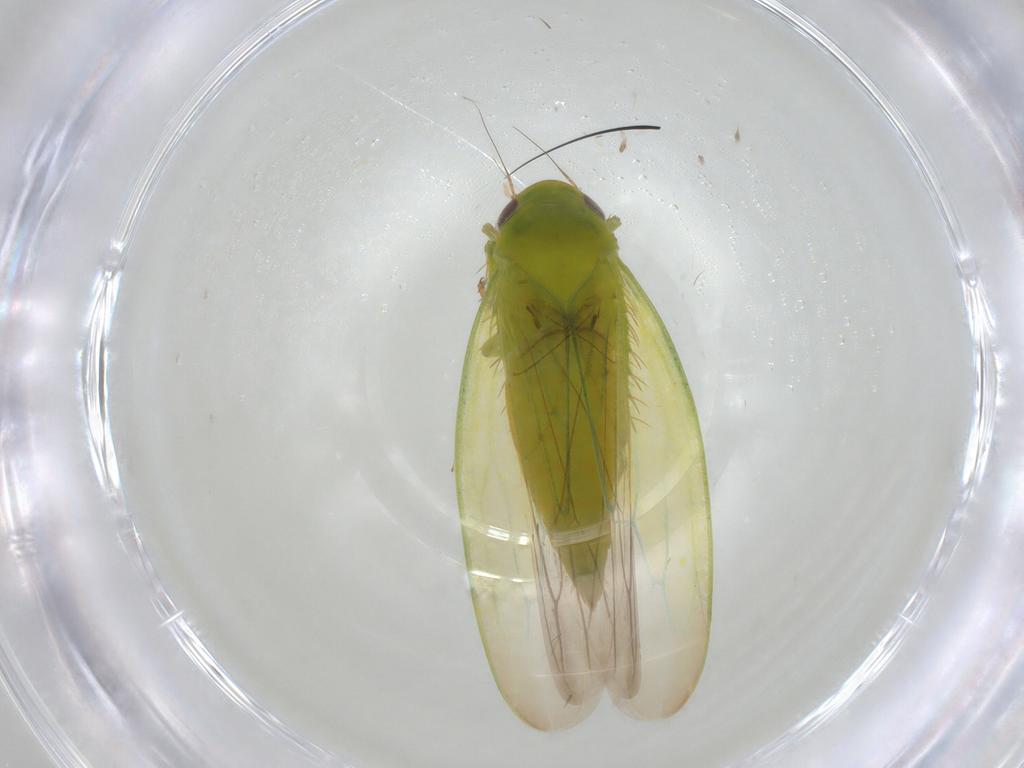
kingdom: Animalia
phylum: Arthropoda
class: Insecta
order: Hemiptera
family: Cicadellidae
